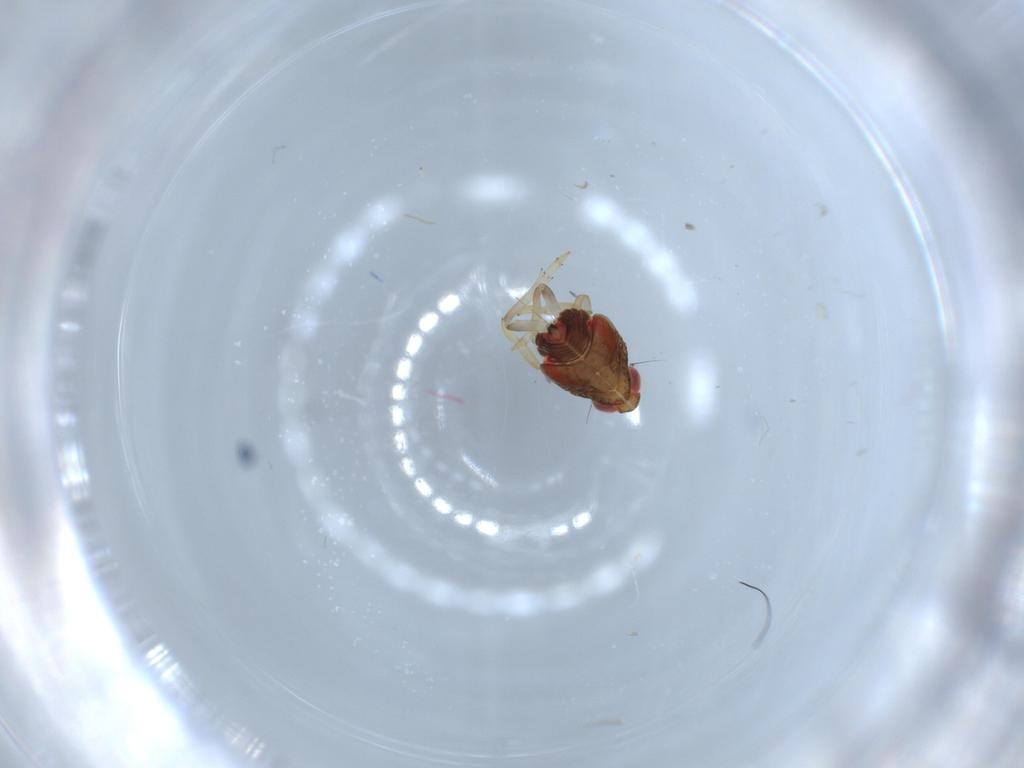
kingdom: Animalia
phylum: Arthropoda
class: Insecta
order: Hemiptera
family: Issidae
